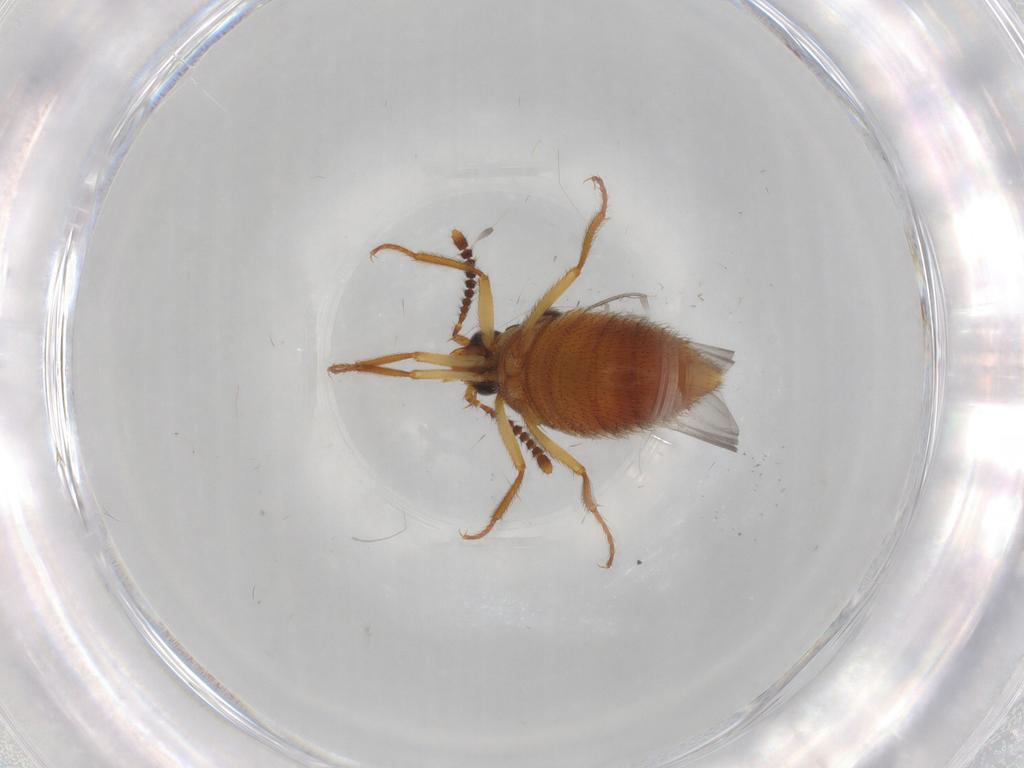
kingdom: Animalia
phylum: Arthropoda
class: Insecta
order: Coleoptera
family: Staphylinidae
